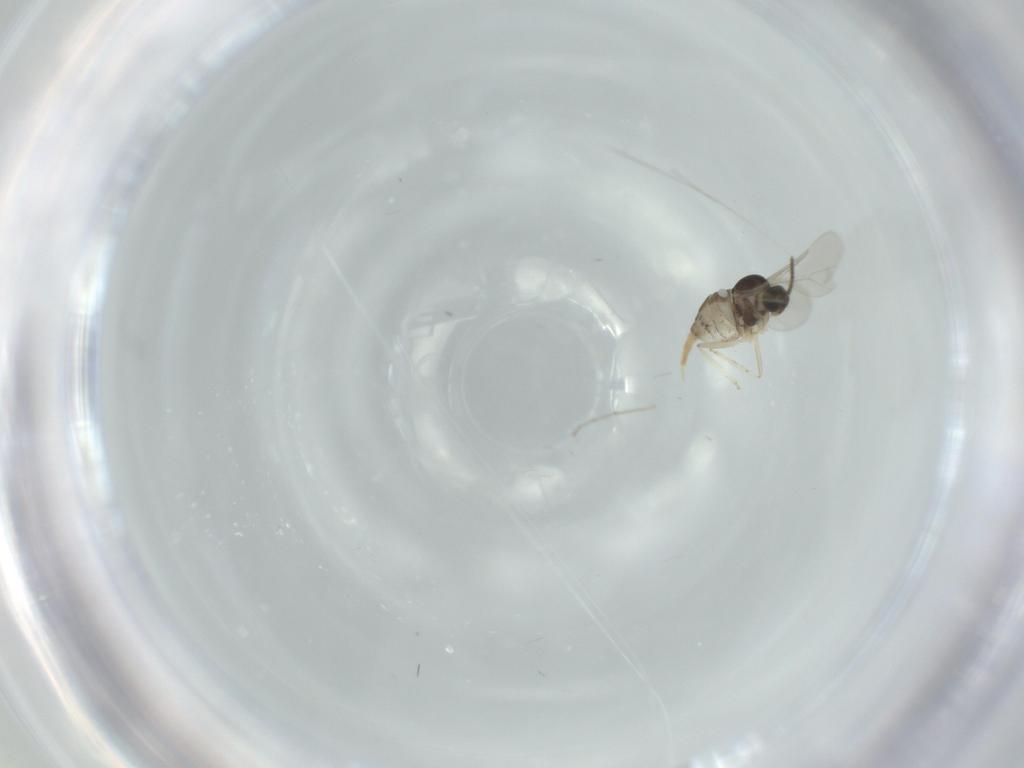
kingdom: Animalia
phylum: Arthropoda
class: Insecta
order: Diptera
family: Cecidomyiidae
